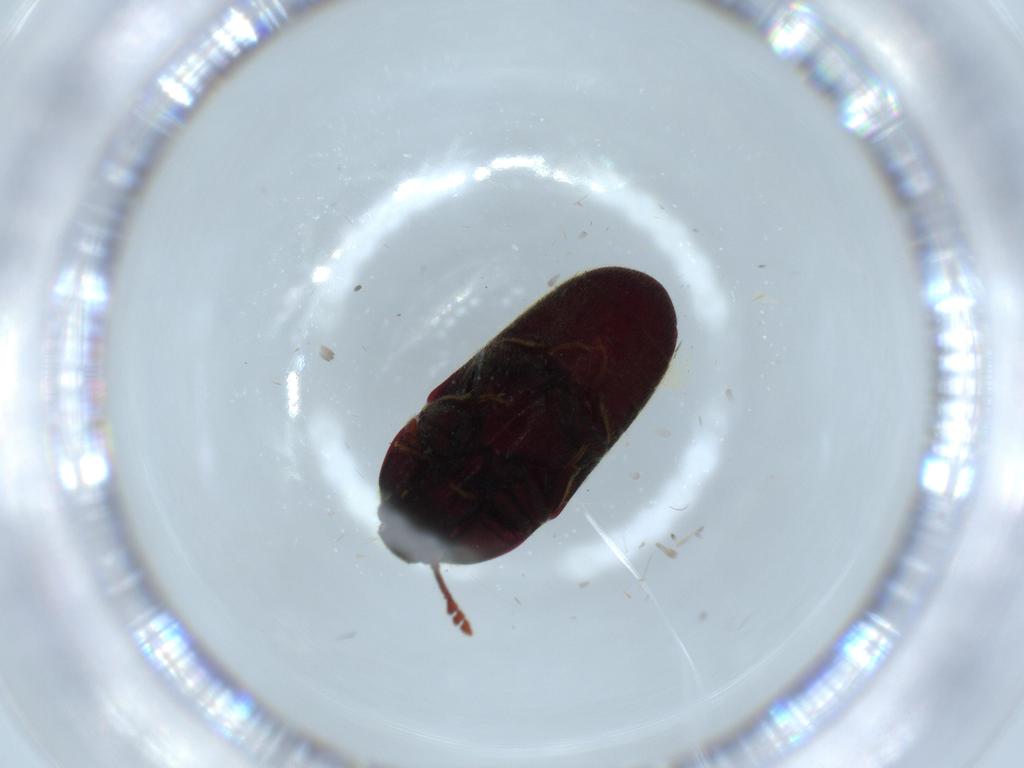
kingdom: Animalia
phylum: Arthropoda
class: Insecta
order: Coleoptera
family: Throscidae
